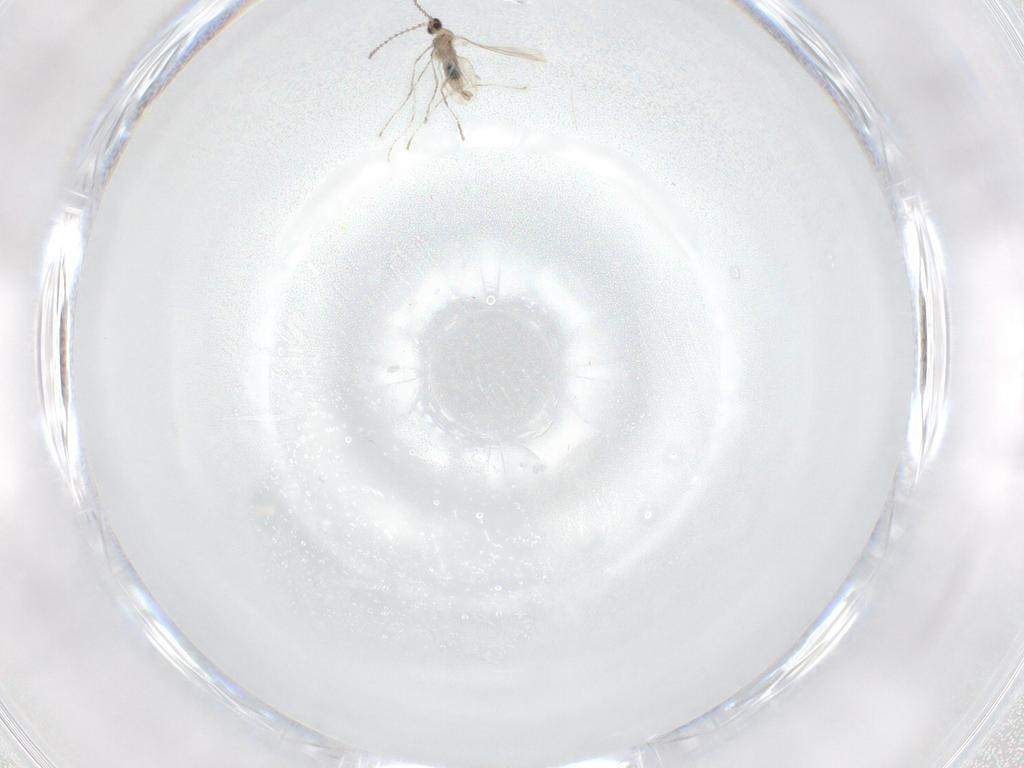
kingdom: Animalia
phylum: Arthropoda
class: Insecta
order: Diptera
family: Cecidomyiidae
